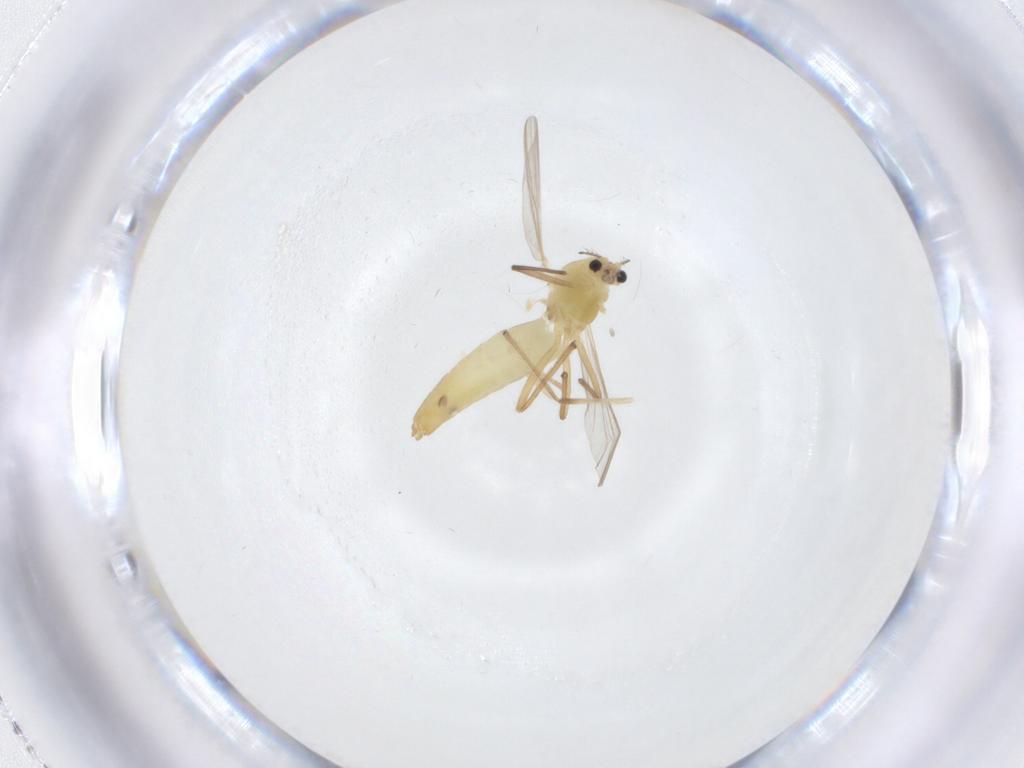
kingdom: Animalia
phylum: Arthropoda
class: Insecta
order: Diptera
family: Chironomidae
